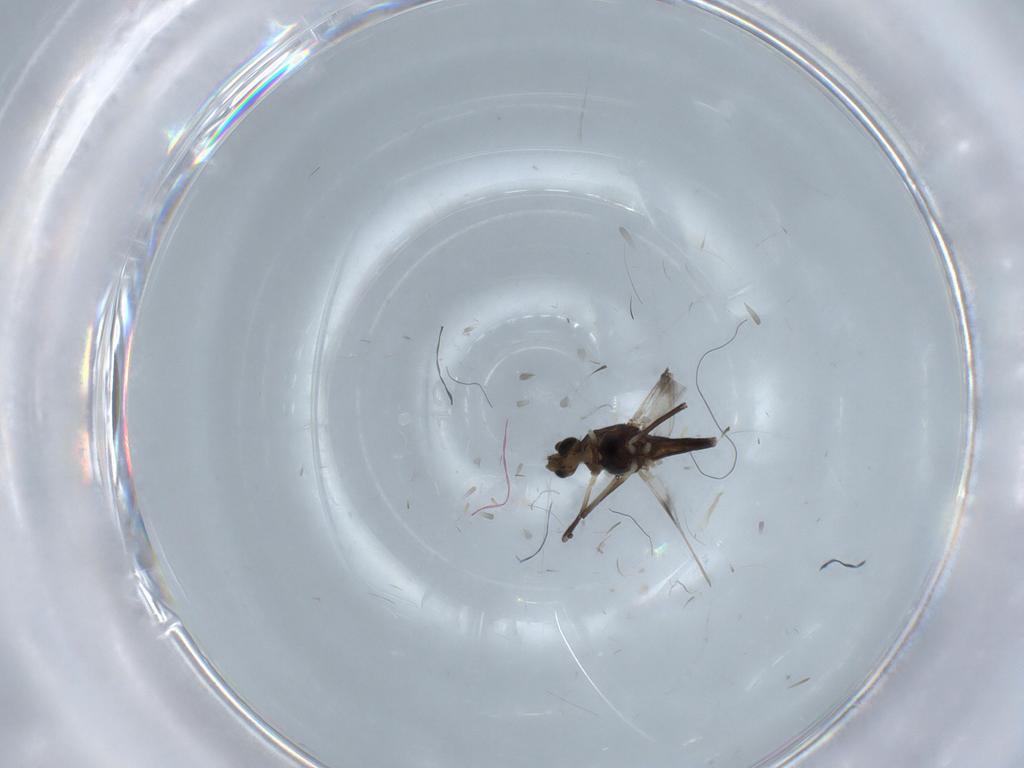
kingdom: Animalia
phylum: Arthropoda
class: Insecta
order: Diptera
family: Chironomidae
